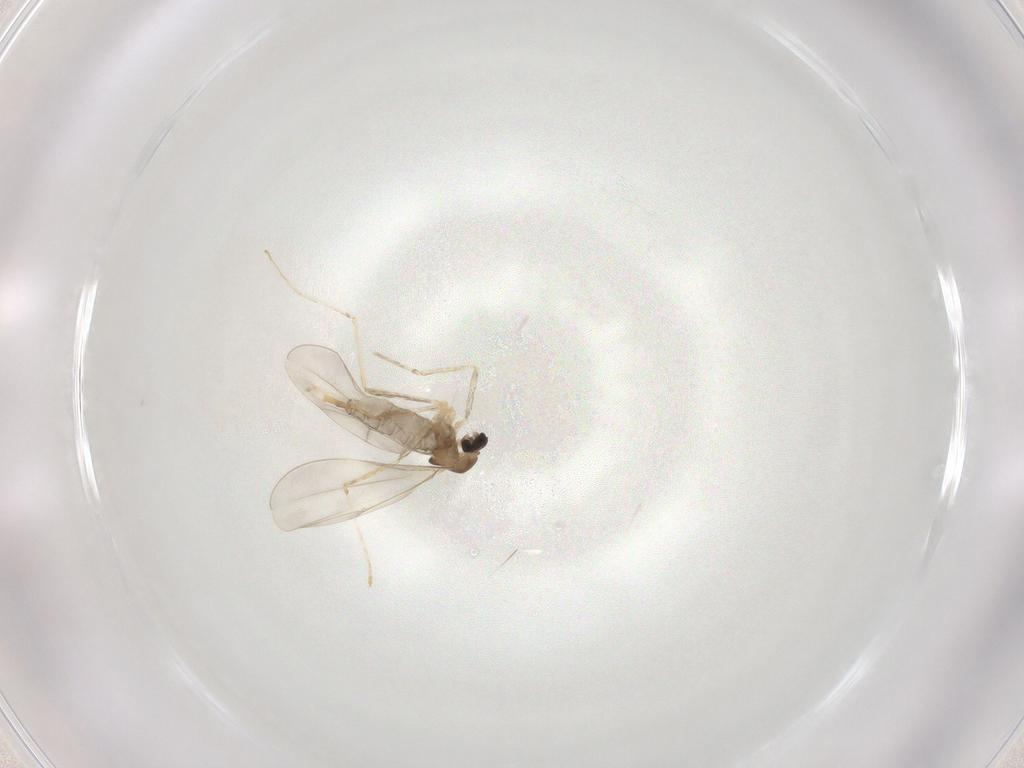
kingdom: Animalia
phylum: Arthropoda
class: Insecta
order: Diptera
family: Cecidomyiidae
